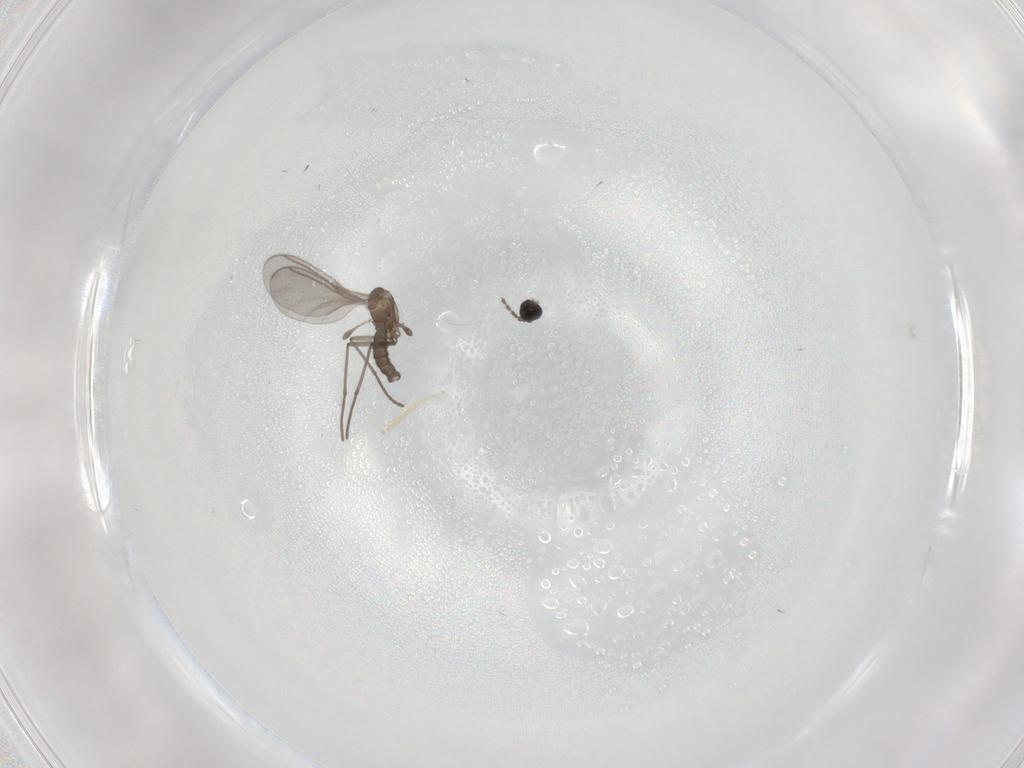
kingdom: Animalia
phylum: Arthropoda
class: Insecta
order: Diptera
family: Sciaridae
